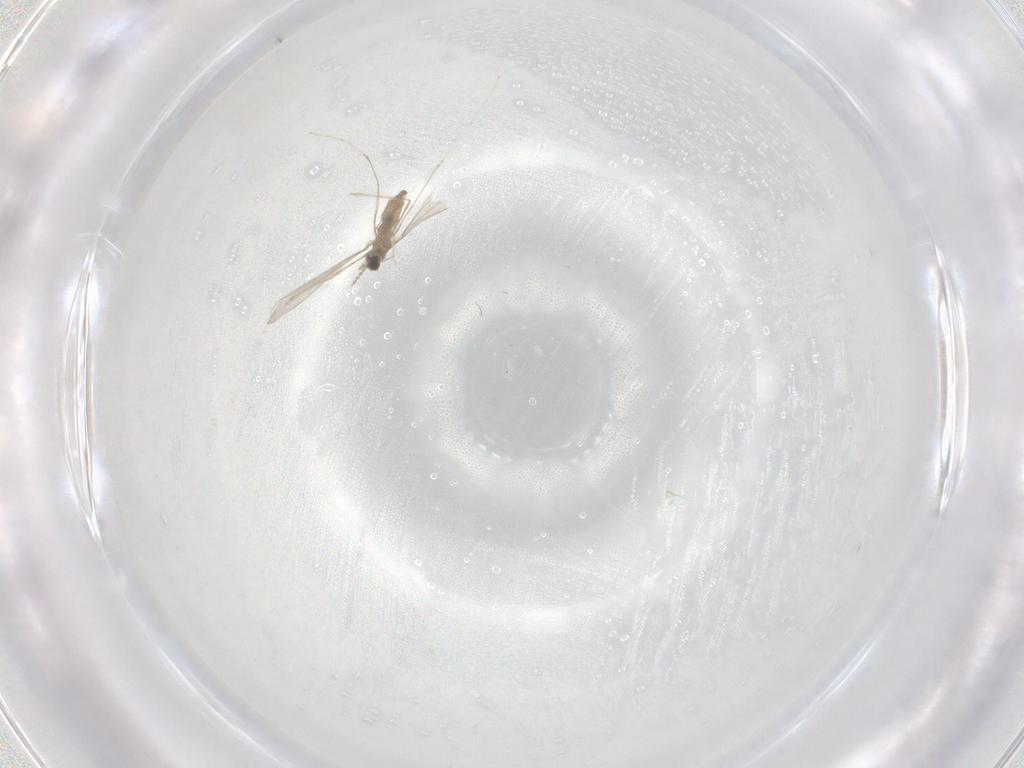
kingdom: Animalia
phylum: Arthropoda
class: Insecta
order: Diptera
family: Cecidomyiidae
